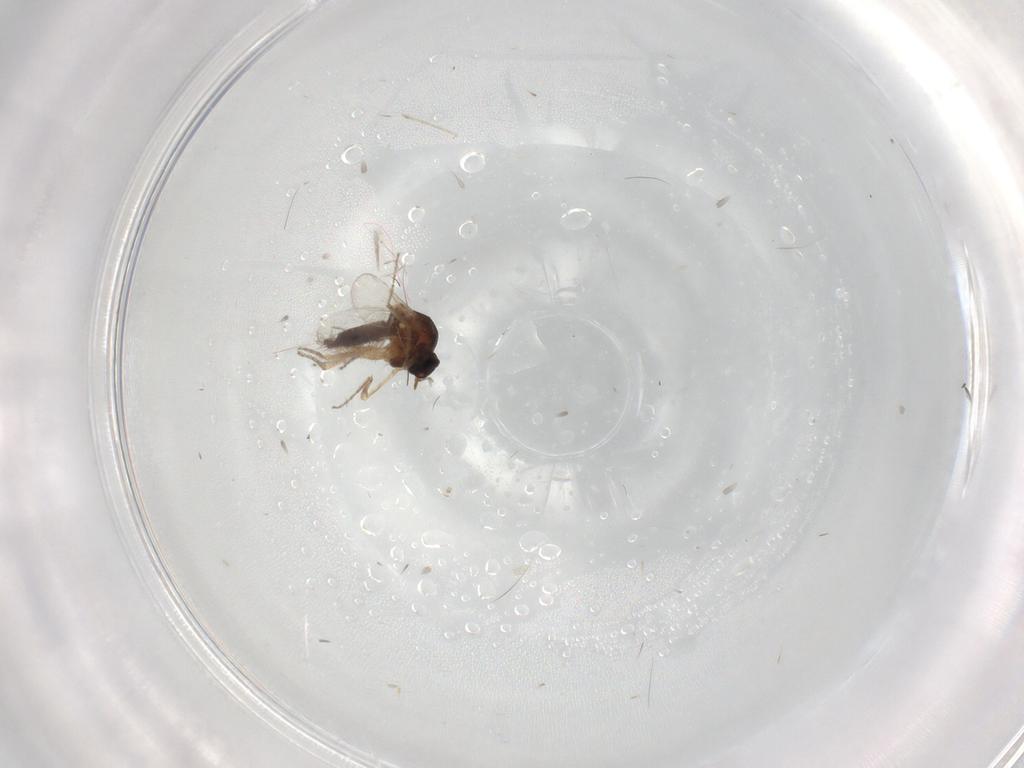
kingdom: Animalia
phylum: Arthropoda
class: Insecta
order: Diptera
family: Ceratopogonidae
